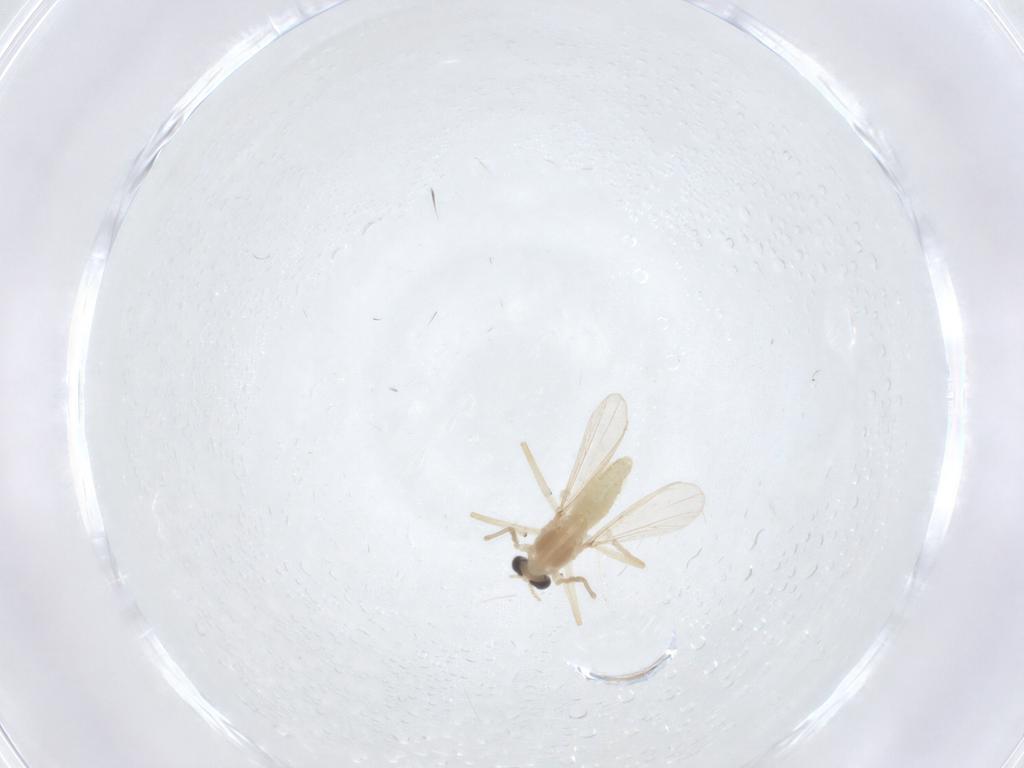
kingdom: Animalia
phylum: Arthropoda
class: Insecta
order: Diptera
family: Chironomidae
